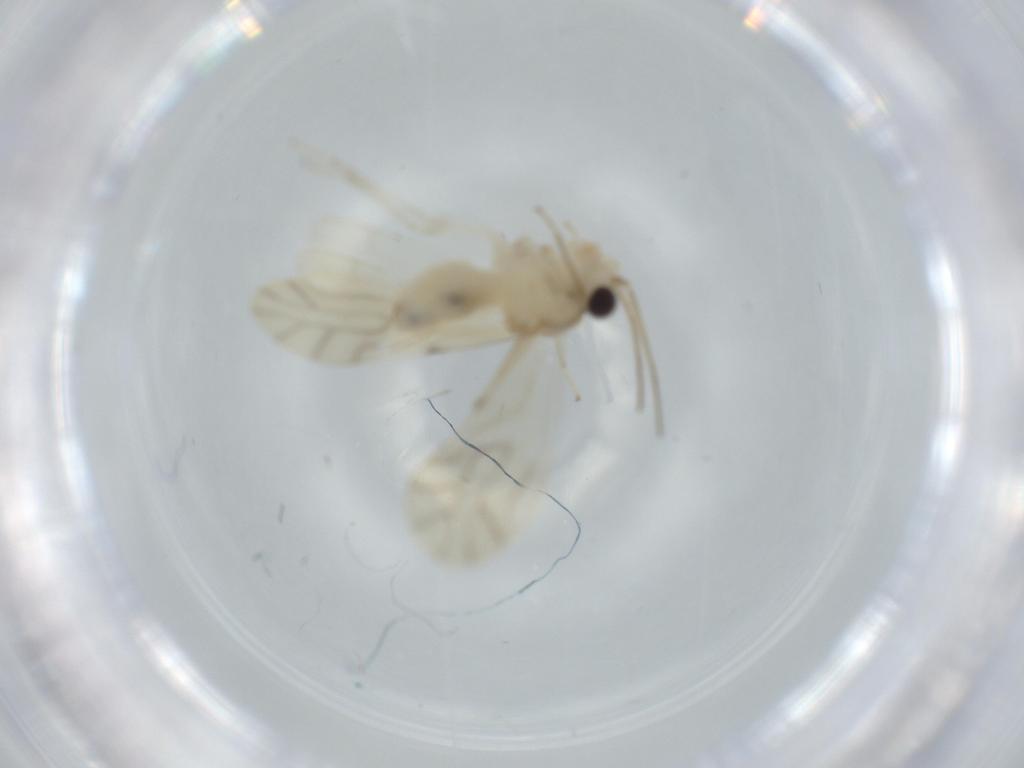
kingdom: Animalia
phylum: Arthropoda
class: Insecta
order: Psocodea
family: Caeciliusidae
